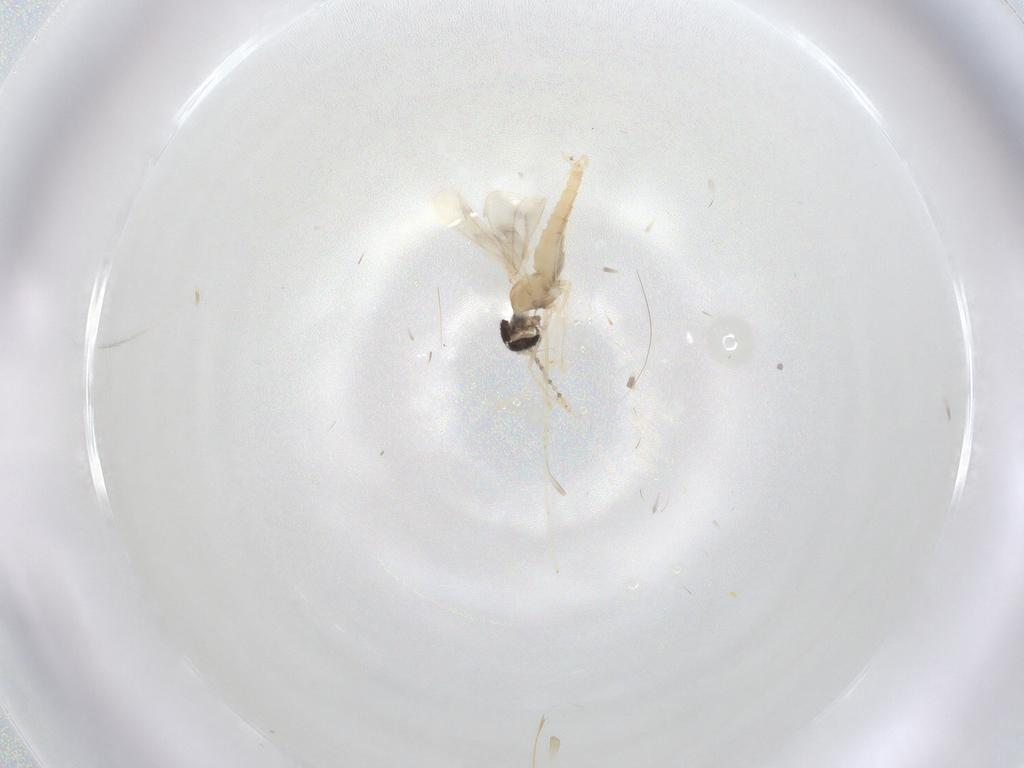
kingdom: Animalia
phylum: Arthropoda
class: Insecta
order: Diptera
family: Cecidomyiidae
